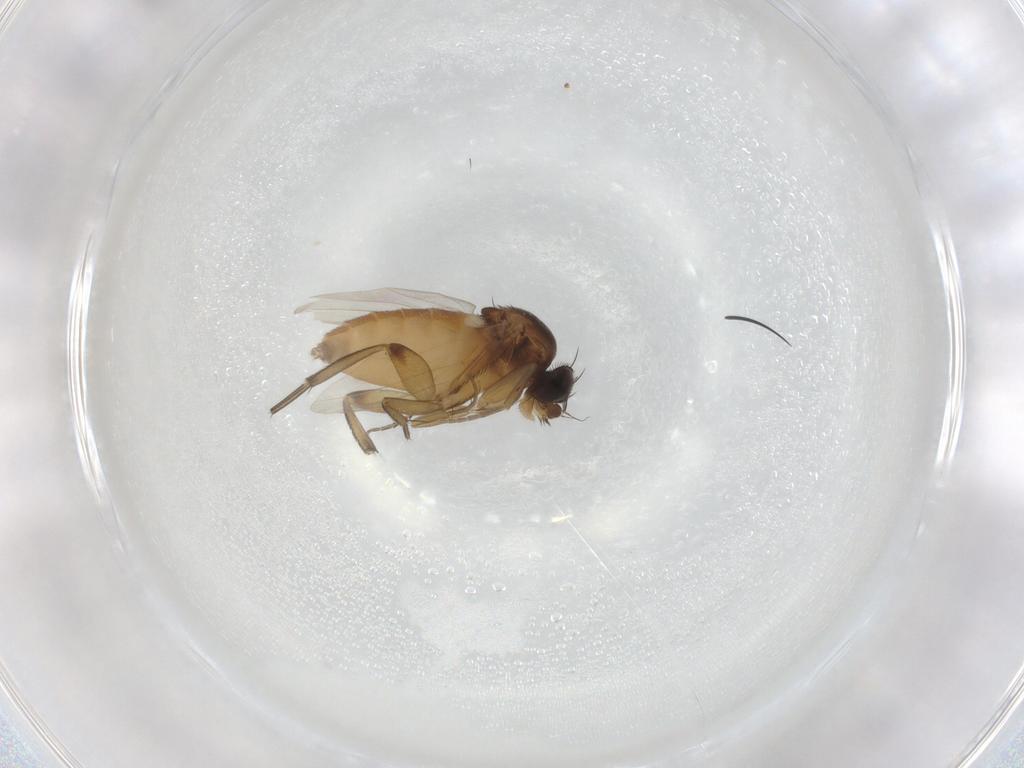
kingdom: Animalia
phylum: Arthropoda
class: Insecta
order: Diptera
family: Phoridae
